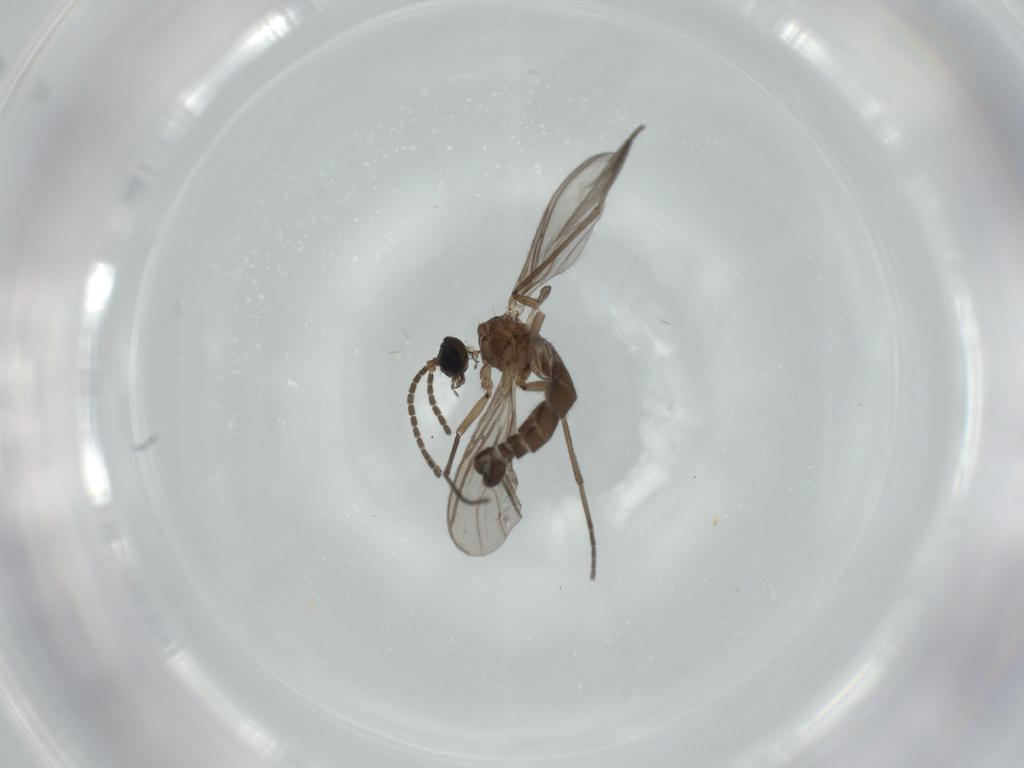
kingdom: Animalia
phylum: Arthropoda
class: Insecta
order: Diptera
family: Sciaridae
